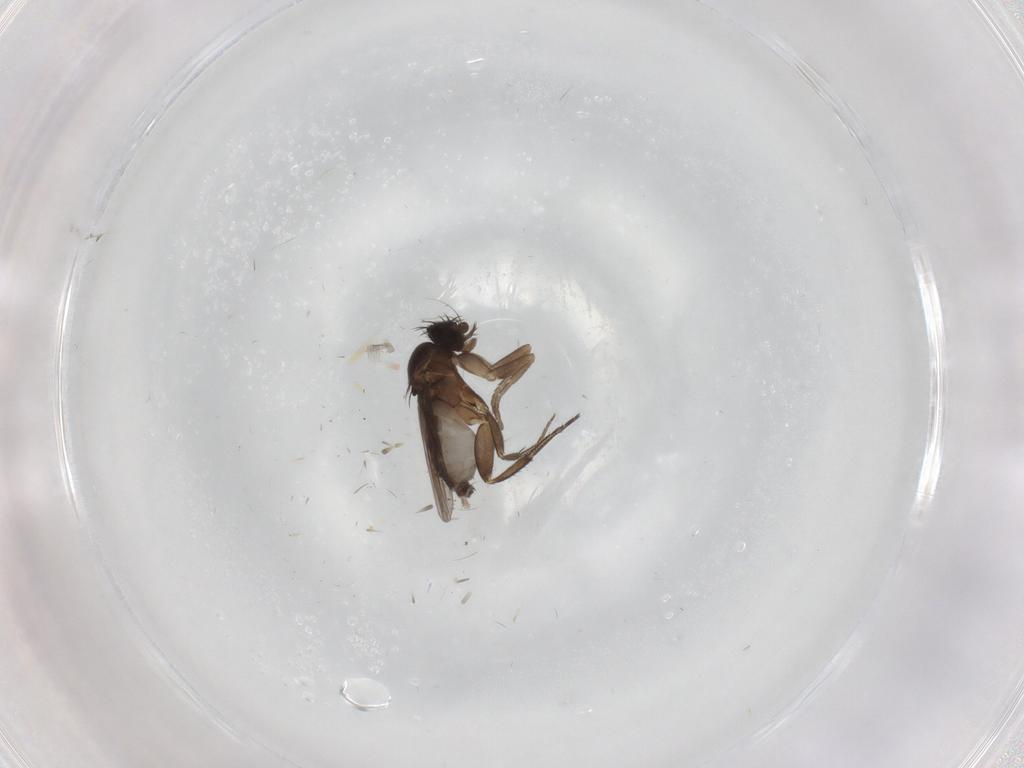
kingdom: Animalia
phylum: Arthropoda
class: Insecta
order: Diptera
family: Phoridae
